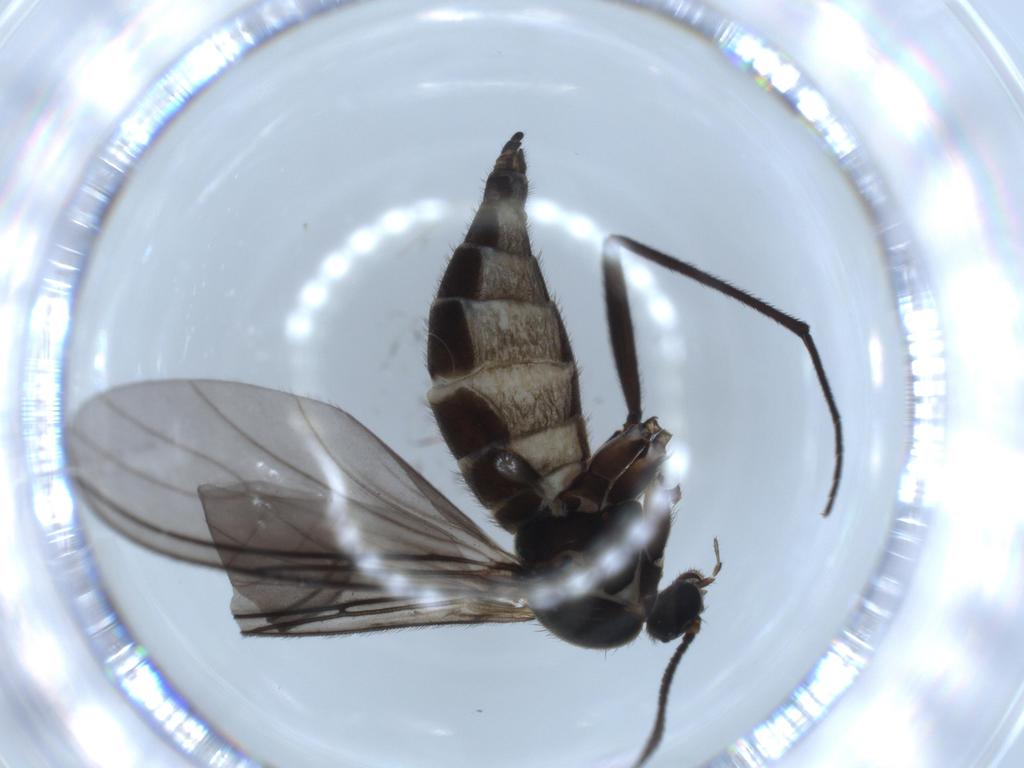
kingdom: Animalia
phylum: Arthropoda
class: Insecta
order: Diptera
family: Sciaridae
